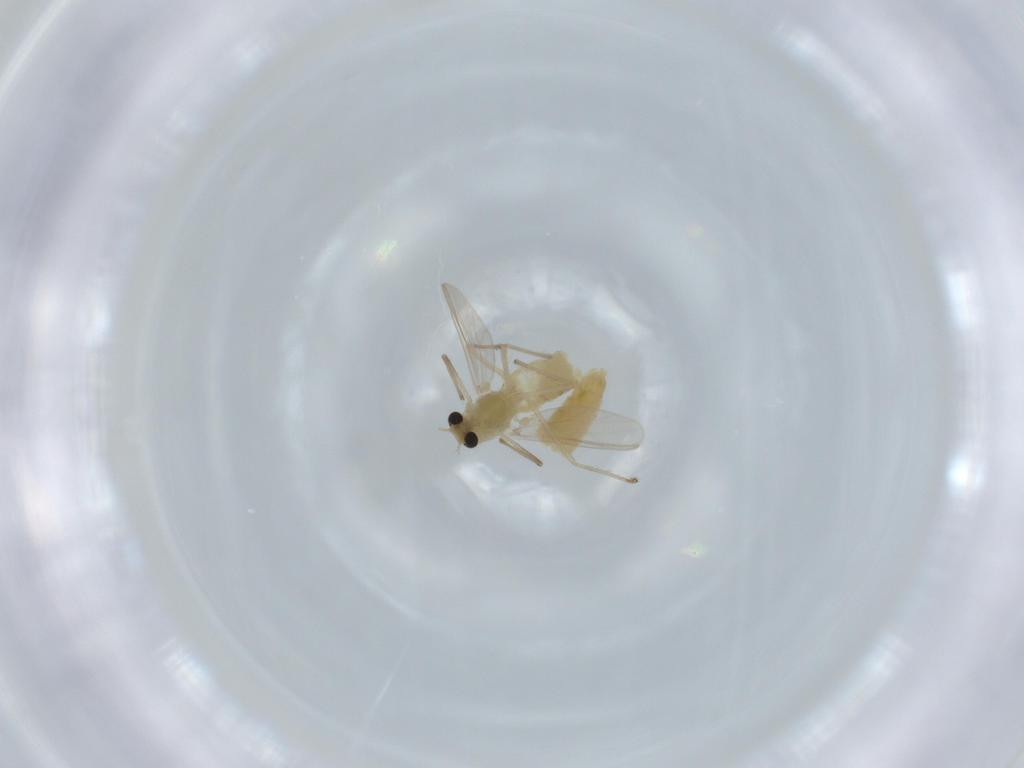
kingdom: Animalia
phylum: Arthropoda
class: Insecta
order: Diptera
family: Chironomidae
